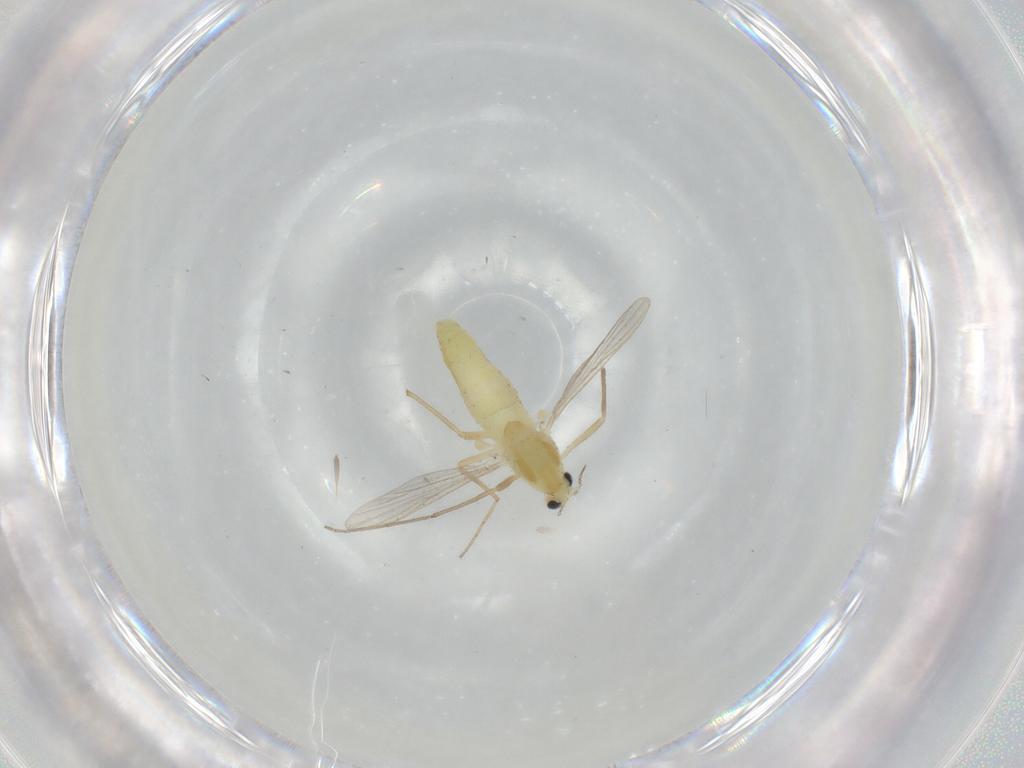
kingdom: Animalia
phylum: Arthropoda
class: Insecta
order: Diptera
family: Chironomidae
